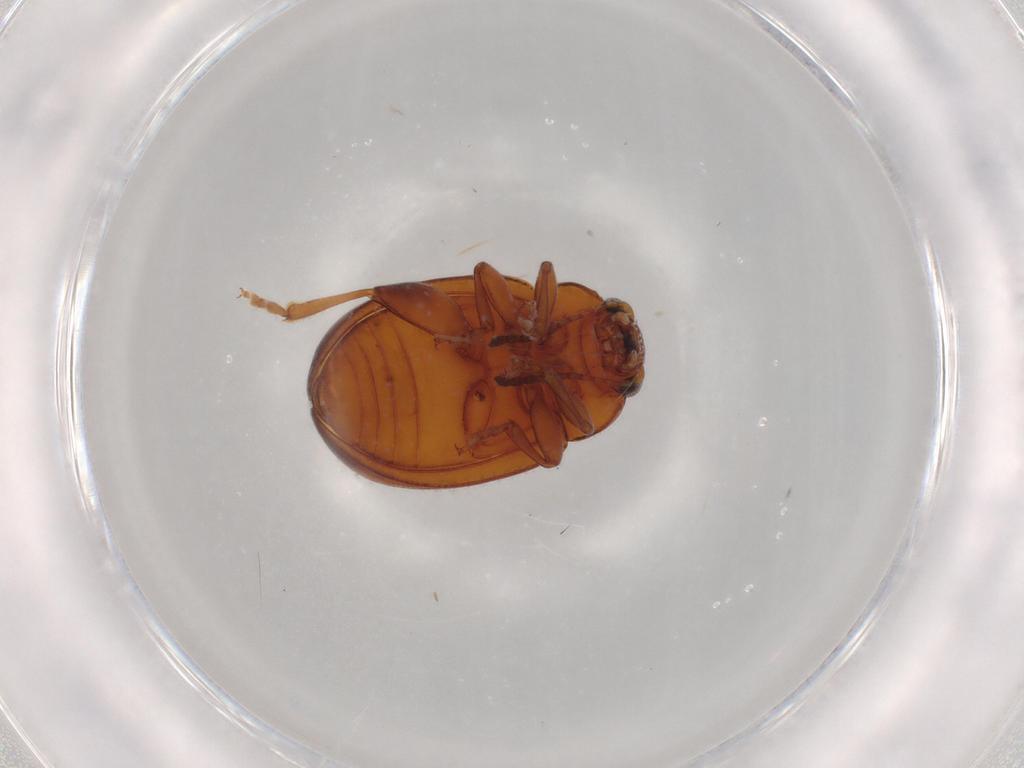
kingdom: Animalia
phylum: Arthropoda
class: Insecta
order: Coleoptera
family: Chrysomelidae
